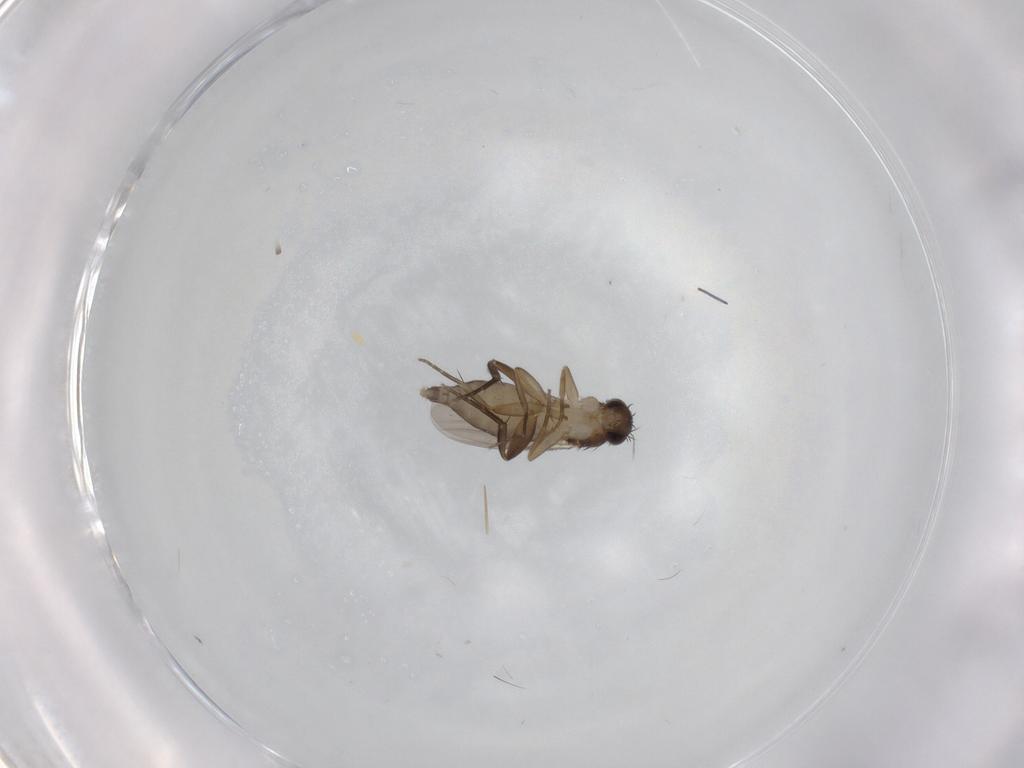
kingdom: Animalia
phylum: Arthropoda
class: Insecta
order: Diptera
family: Phoridae
